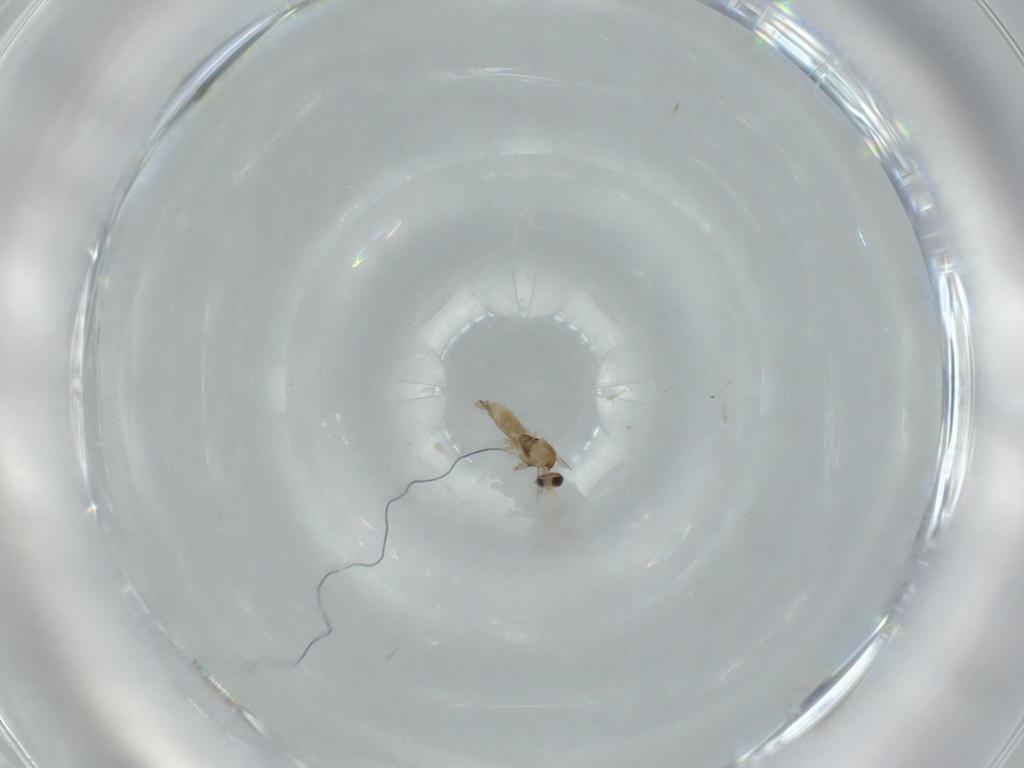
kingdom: Animalia
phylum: Arthropoda
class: Insecta
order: Diptera
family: Cecidomyiidae
